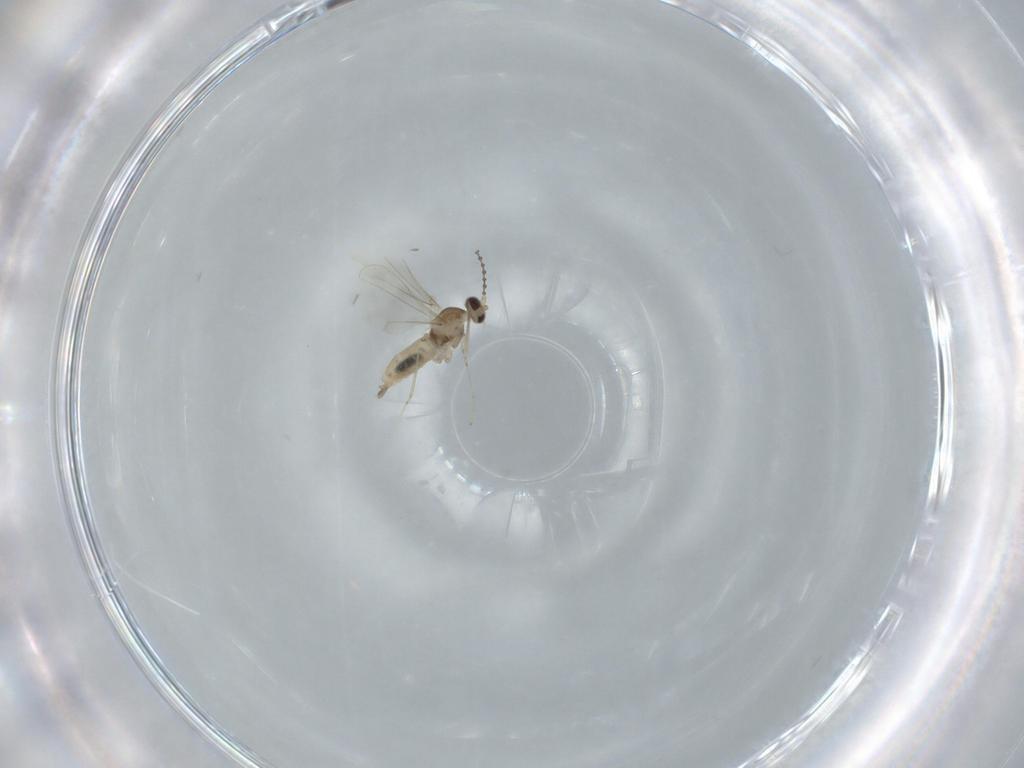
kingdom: Animalia
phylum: Arthropoda
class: Insecta
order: Diptera
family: Cecidomyiidae
